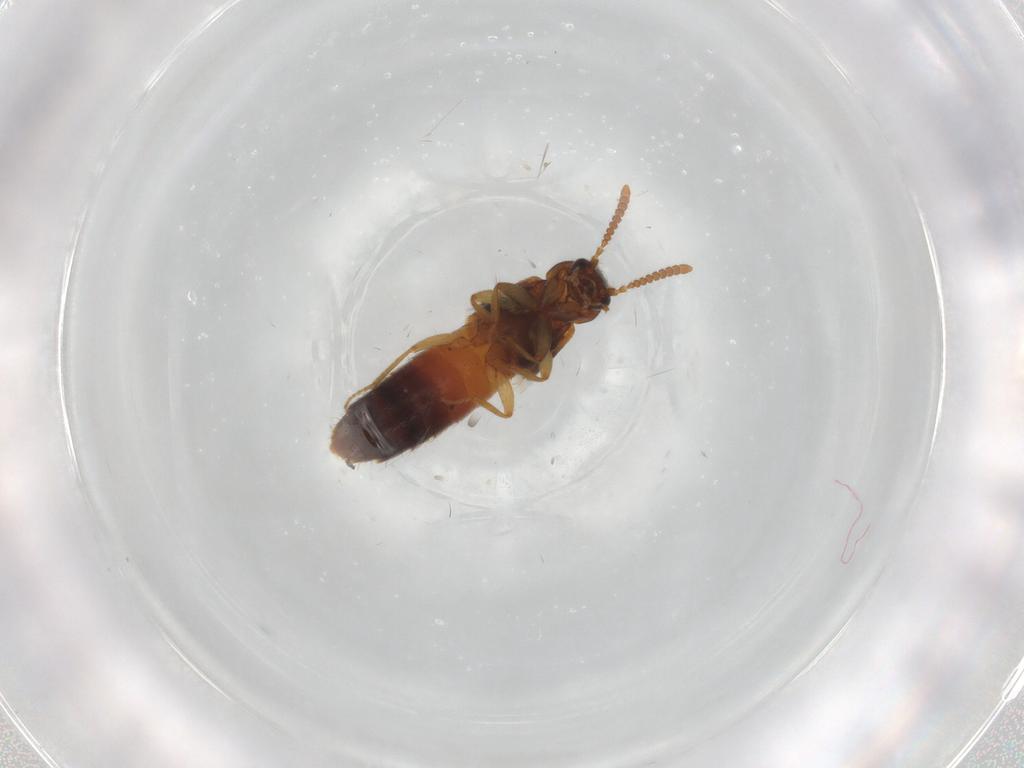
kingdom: Animalia
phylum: Arthropoda
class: Insecta
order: Coleoptera
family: Staphylinidae
